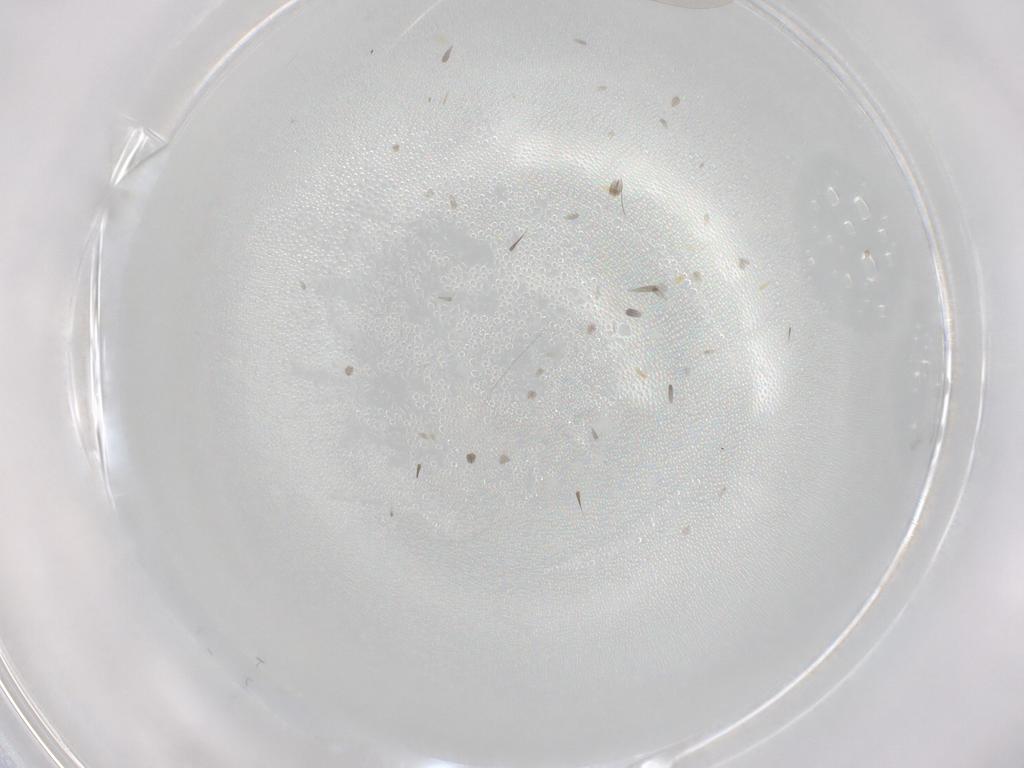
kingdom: Animalia
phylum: Arthropoda
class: Insecta
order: Diptera
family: Cecidomyiidae
